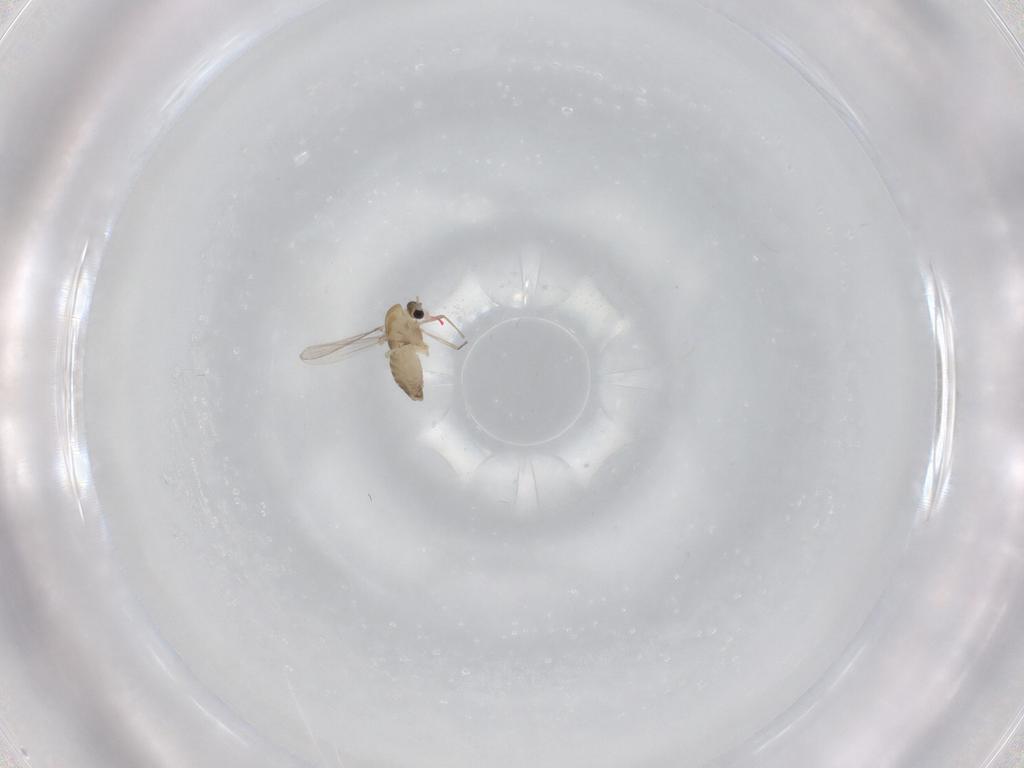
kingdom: Animalia
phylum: Arthropoda
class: Insecta
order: Diptera
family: Chironomidae
